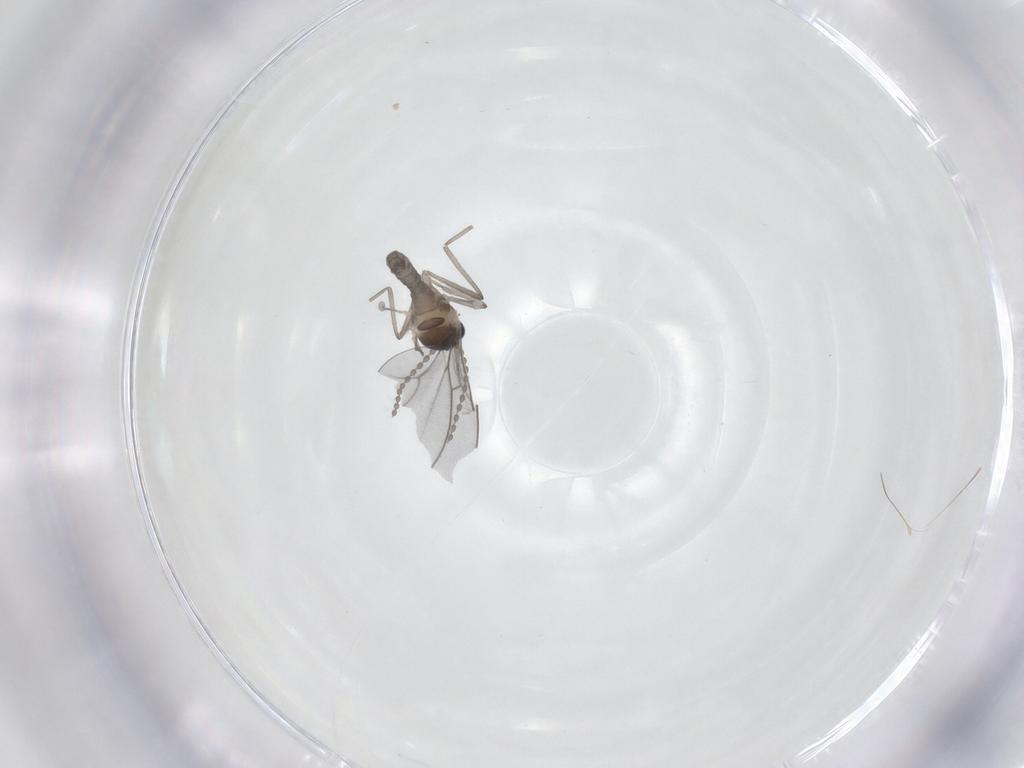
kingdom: Animalia
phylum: Arthropoda
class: Insecta
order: Diptera
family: Cecidomyiidae
